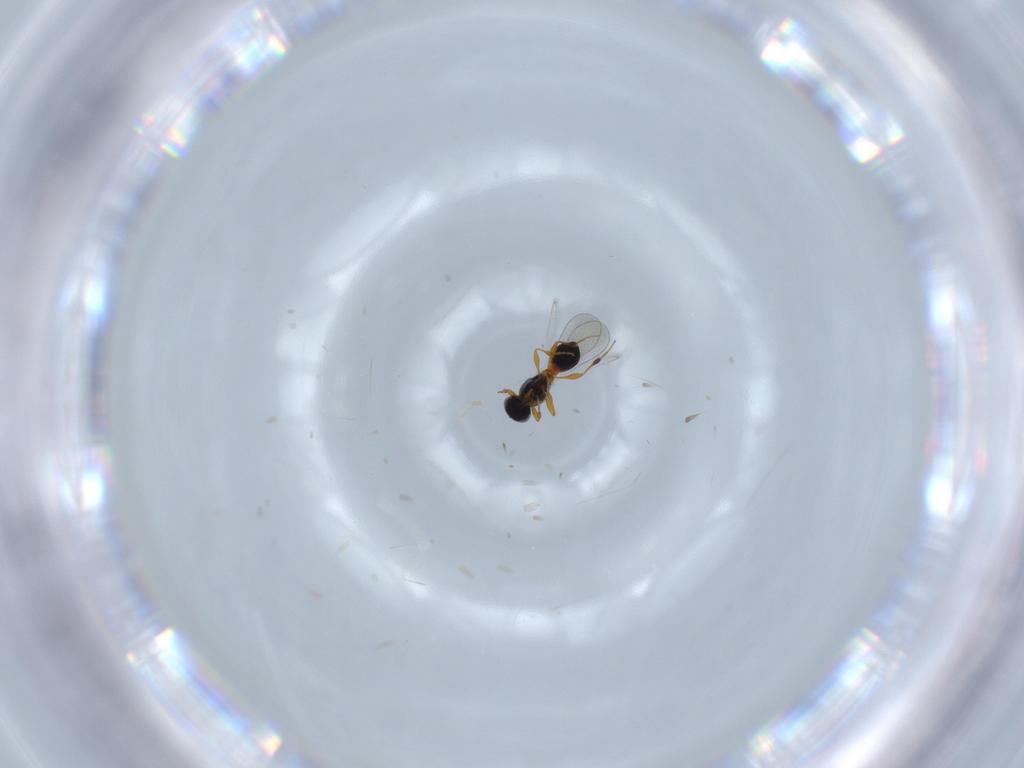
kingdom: Animalia
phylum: Arthropoda
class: Insecta
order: Hymenoptera
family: Platygastridae
